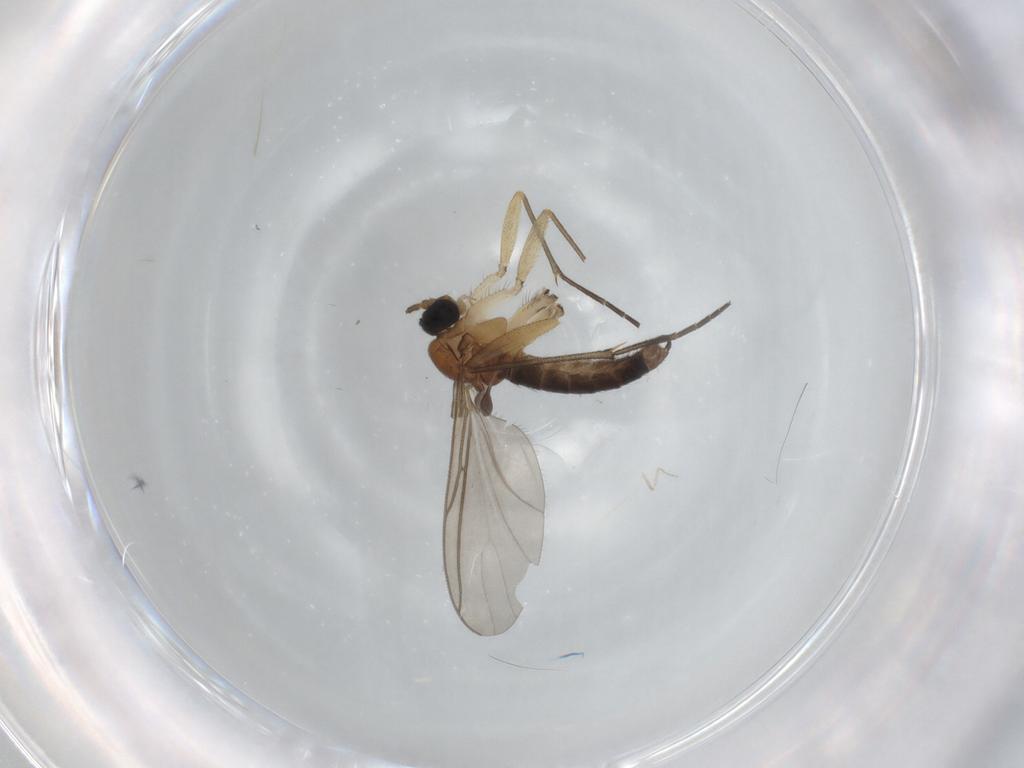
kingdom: Animalia
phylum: Arthropoda
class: Insecta
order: Diptera
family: Sciaridae
